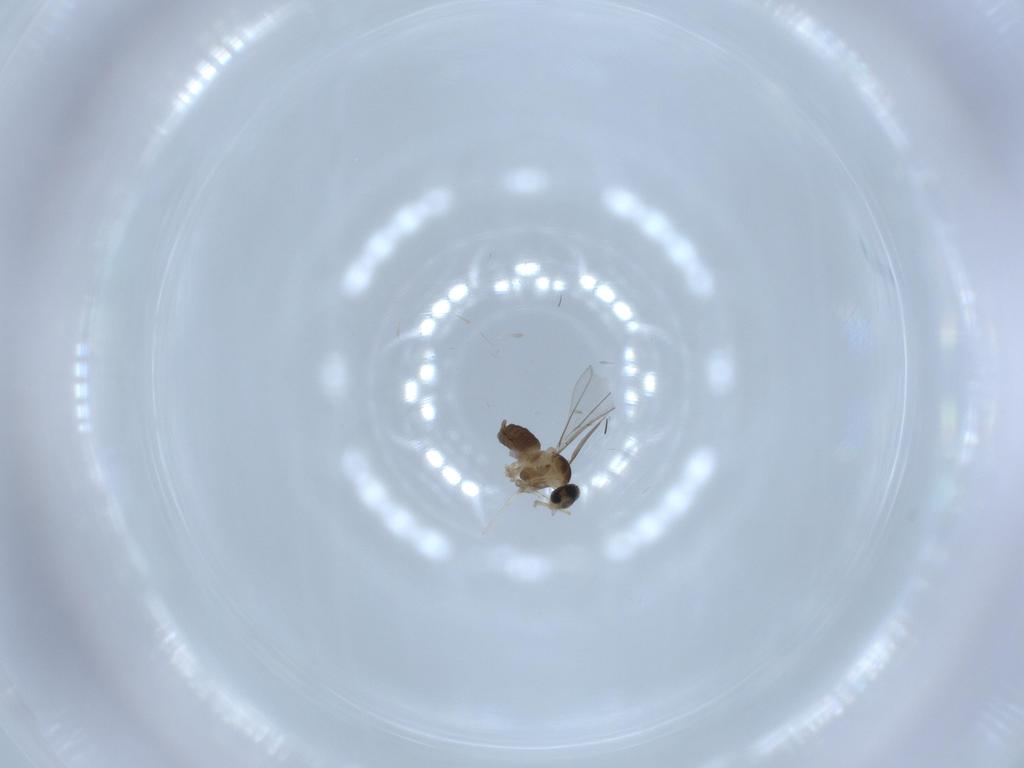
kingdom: Animalia
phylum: Arthropoda
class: Insecta
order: Diptera
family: Cecidomyiidae
